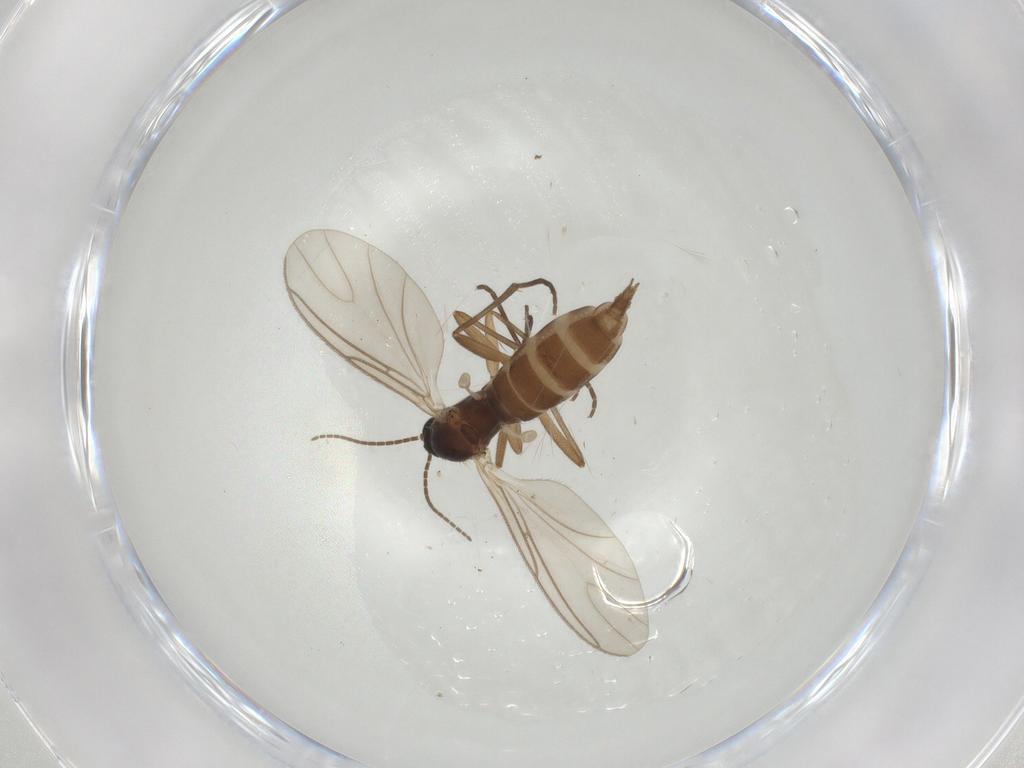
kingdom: Animalia
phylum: Arthropoda
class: Insecta
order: Diptera
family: Sciaridae
